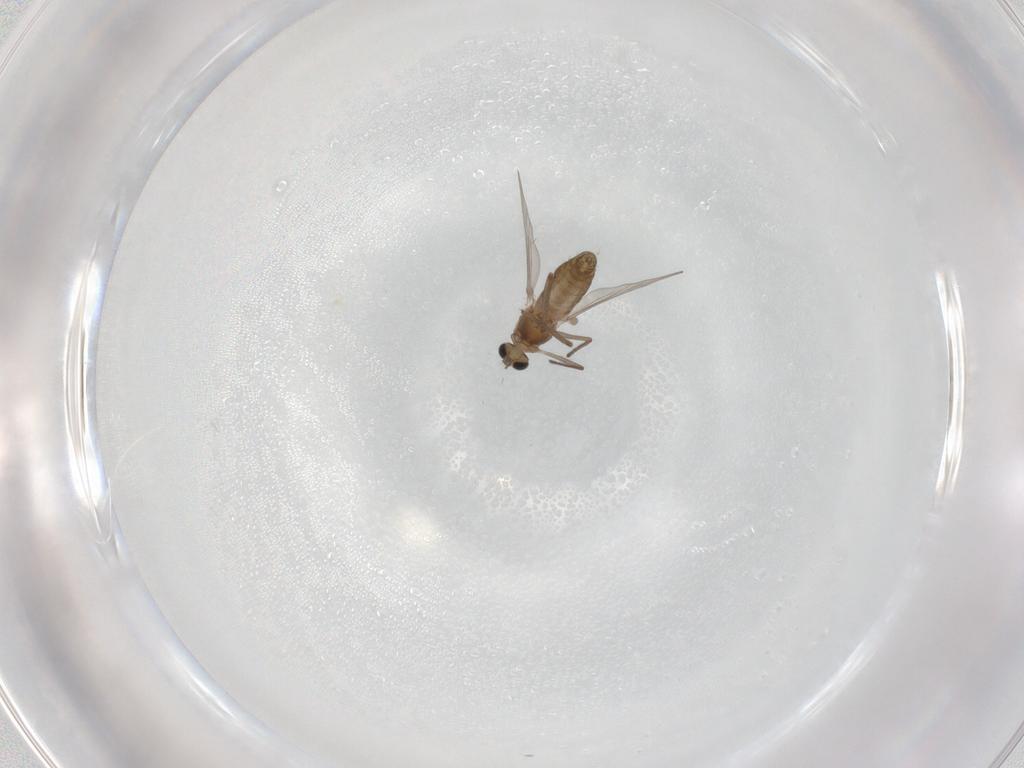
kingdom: Animalia
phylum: Arthropoda
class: Insecta
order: Diptera
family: Chironomidae
